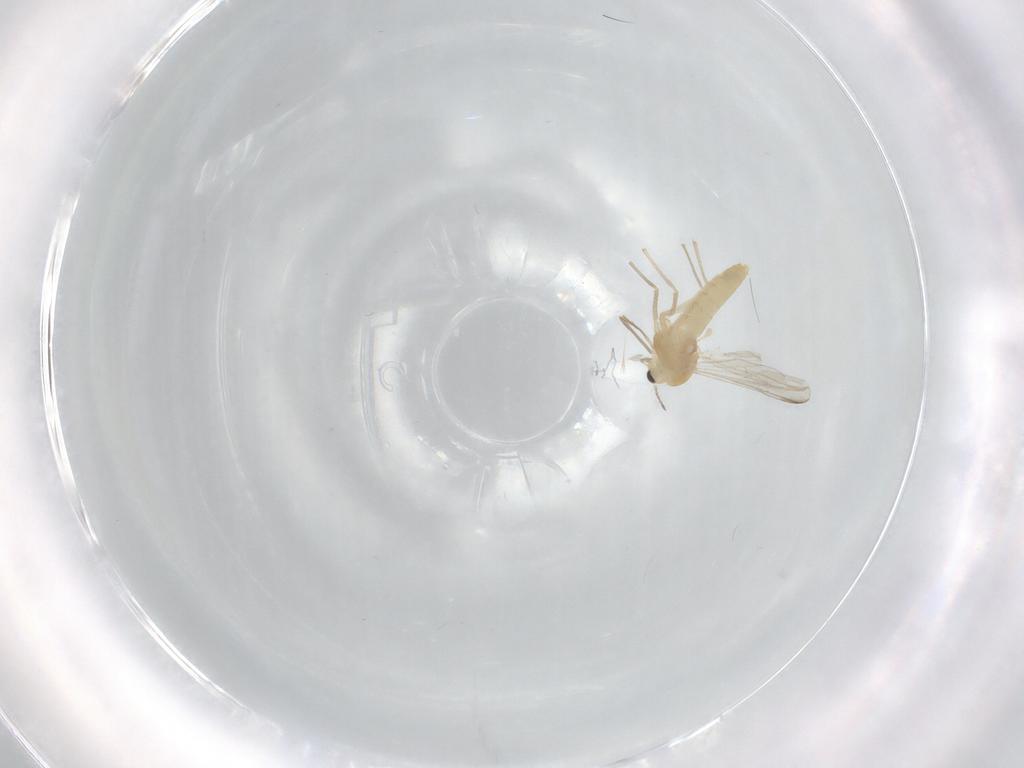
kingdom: Animalia
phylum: Arthropoda
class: Insecta
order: Diptera
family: Chironomidae
